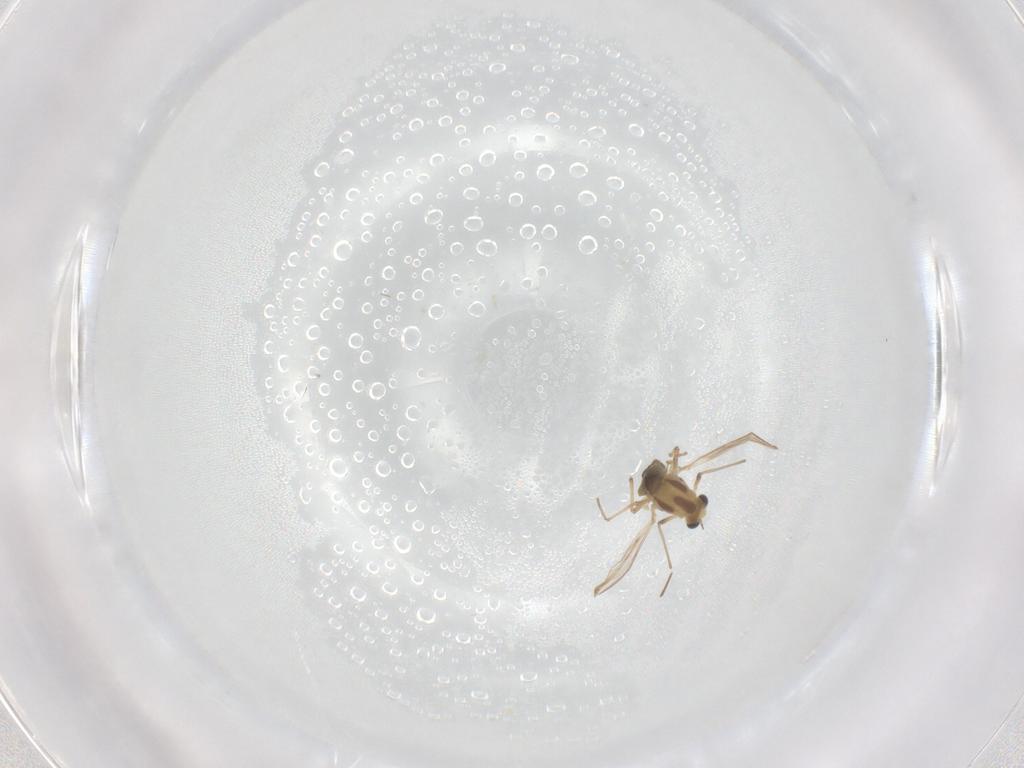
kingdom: Animalia
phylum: Arthropoda
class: Insecta
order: Diptera
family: Chironomidae
